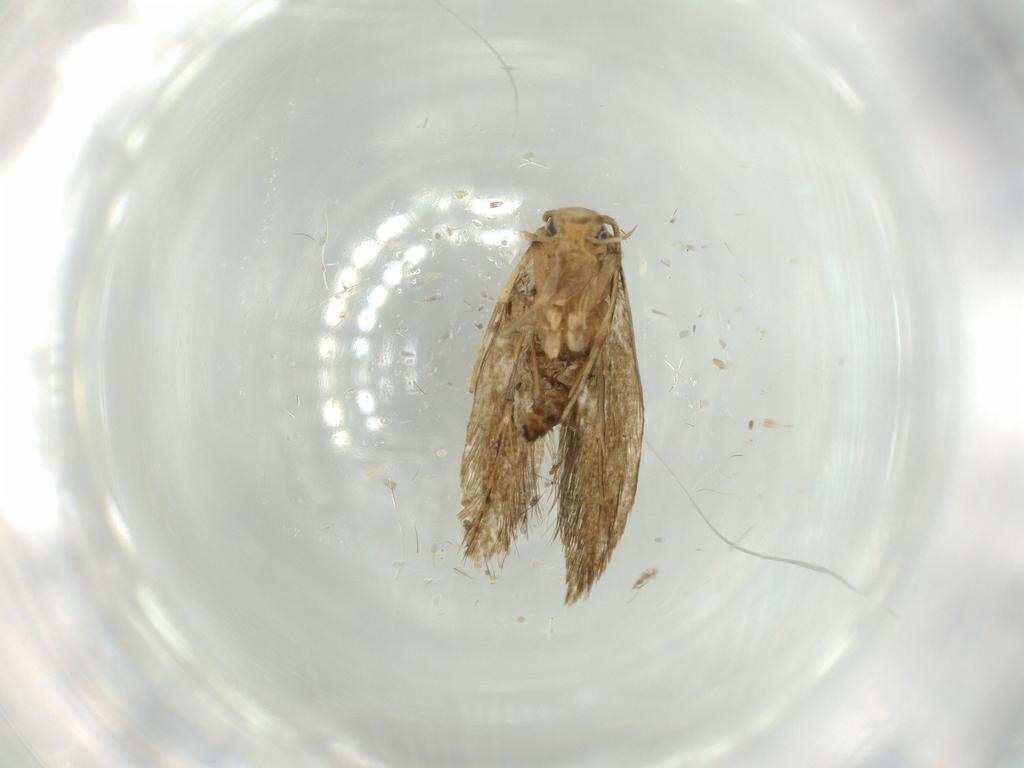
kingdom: Animalia
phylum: Arthropoda
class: Insecta
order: Lepidoptera
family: Tineidae
